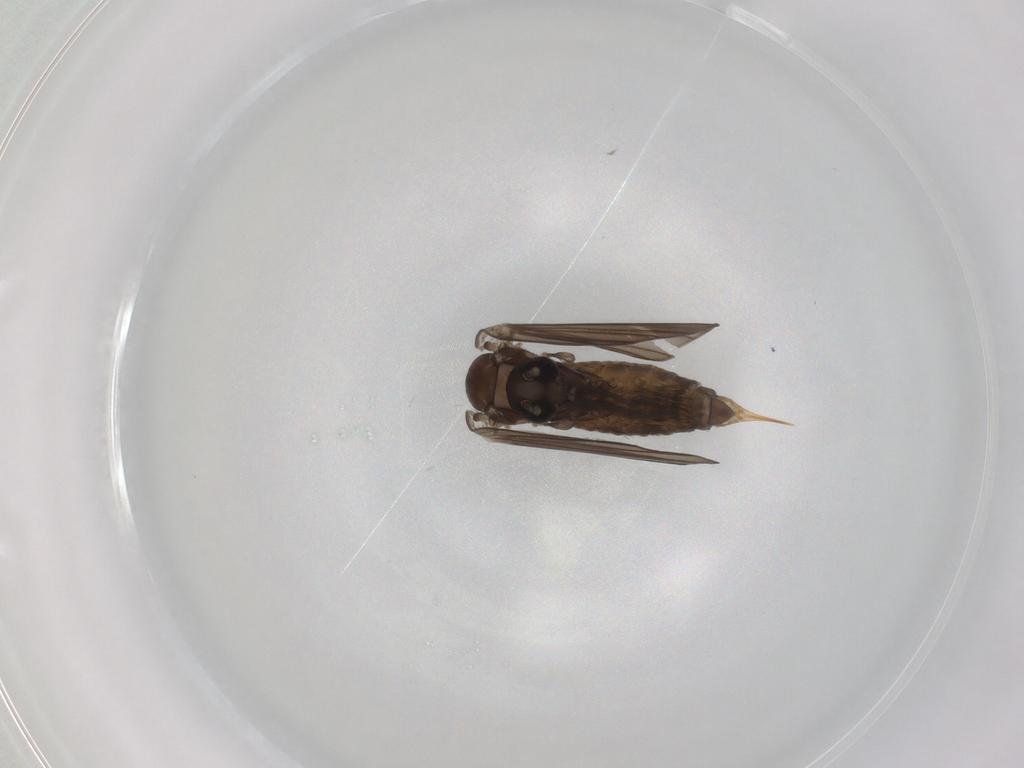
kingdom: Animalia
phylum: Arthropoda
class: Insecta
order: Diptera
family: Psychodidae
